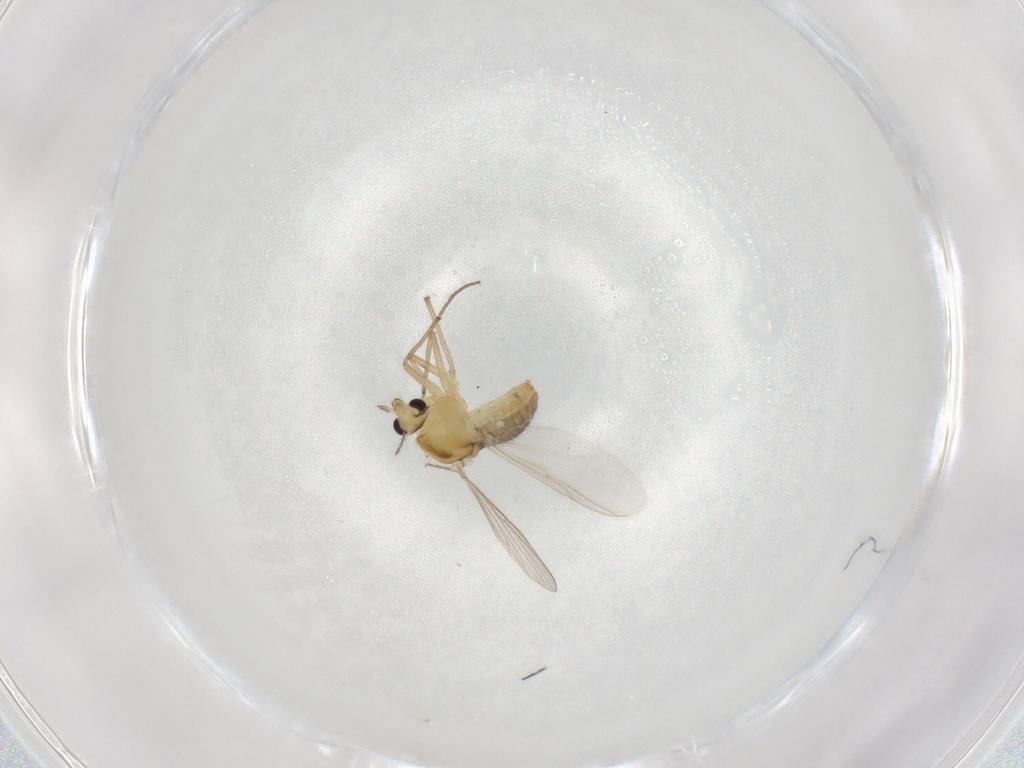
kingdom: Animalia
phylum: Arthropoda
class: Insecta
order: Diptera
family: Chironomidae
